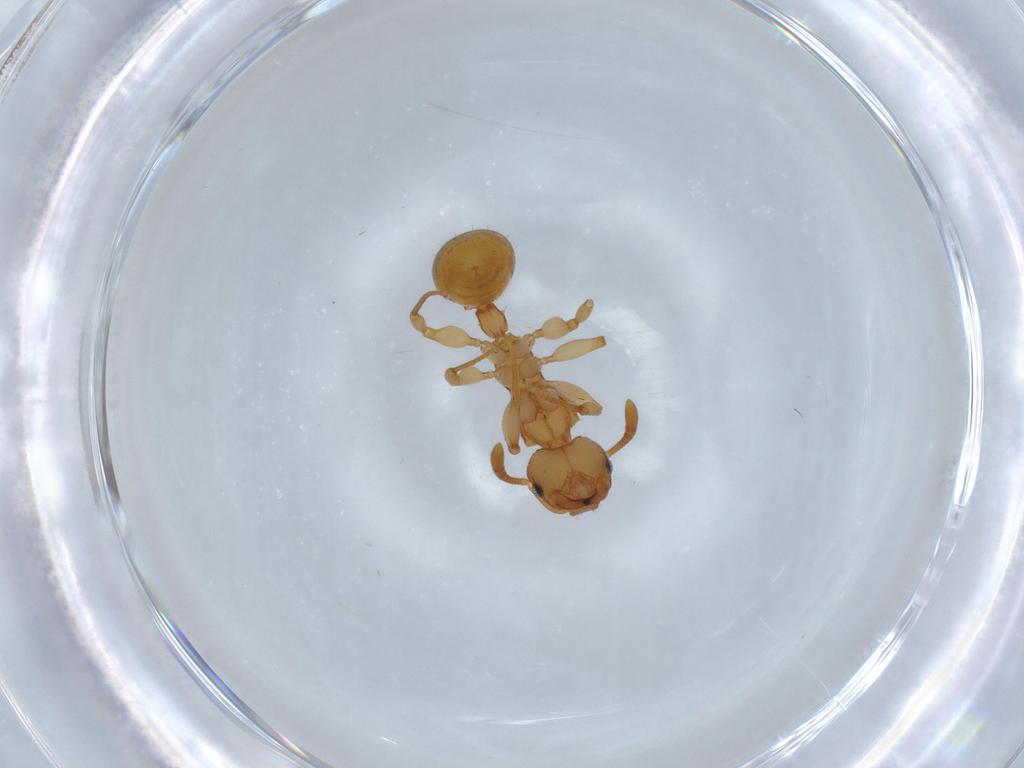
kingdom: Animalia
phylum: Arthropoda
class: Insecta
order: Hymenoptera
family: Formicidae
